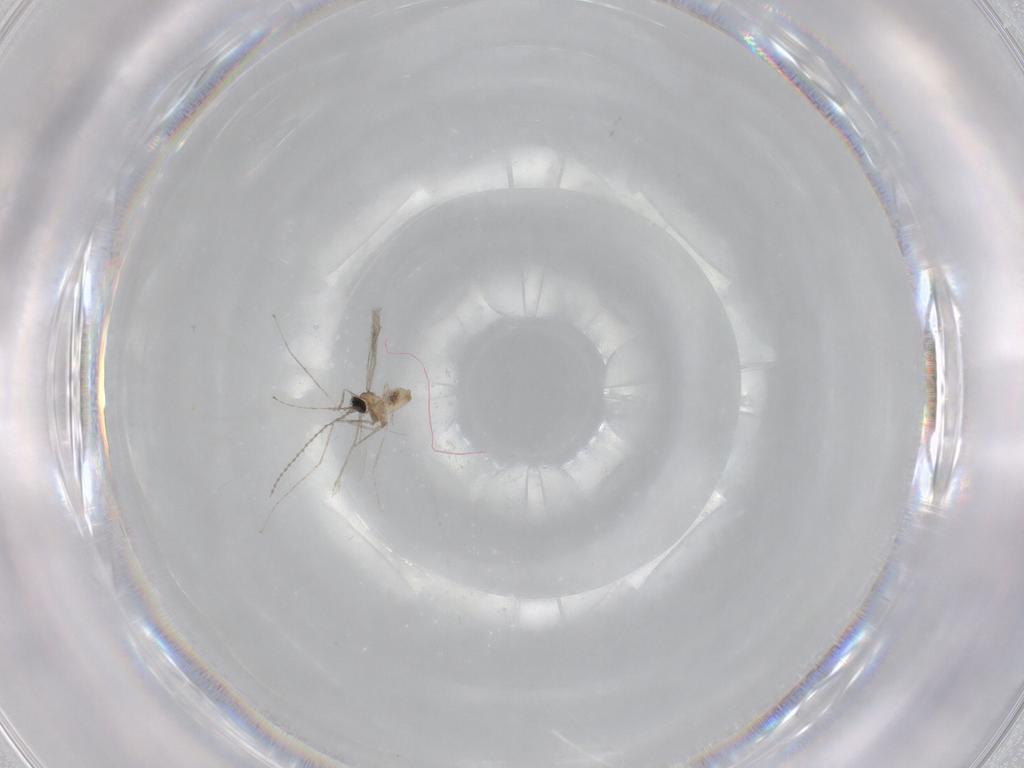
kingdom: Animalia
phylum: Arthropoda
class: Insecta
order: Diptera
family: Cecidomyiidae
